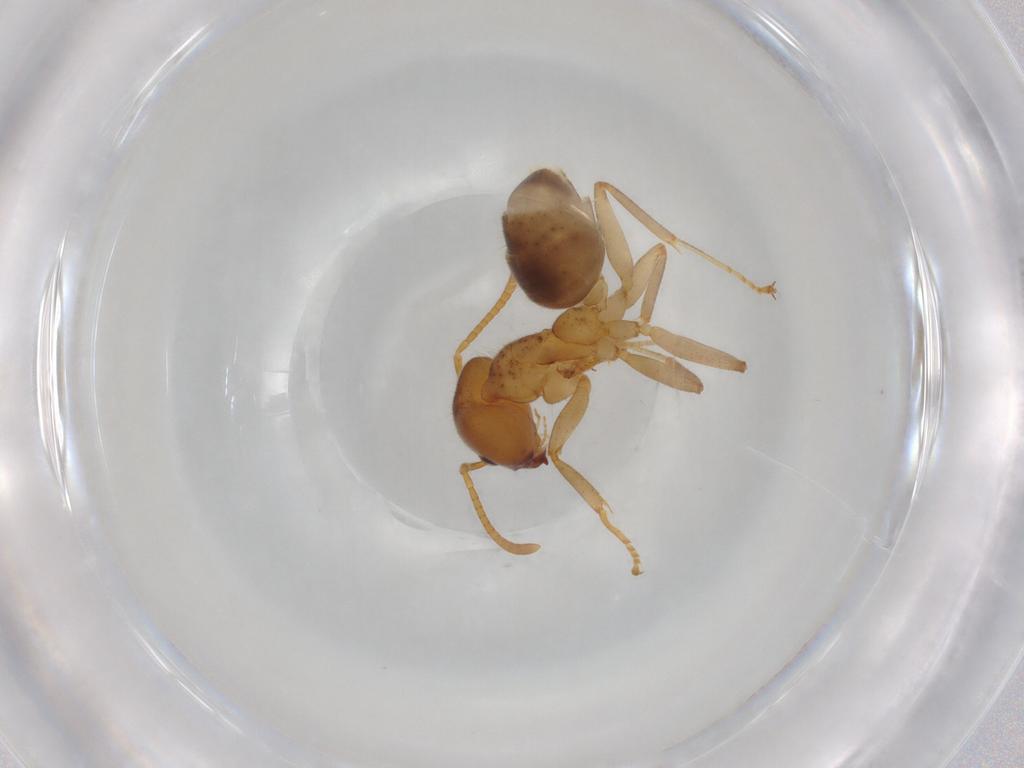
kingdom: Animalia
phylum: Arthropoda
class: Insecta
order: Hymenoptera
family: Formicidae
